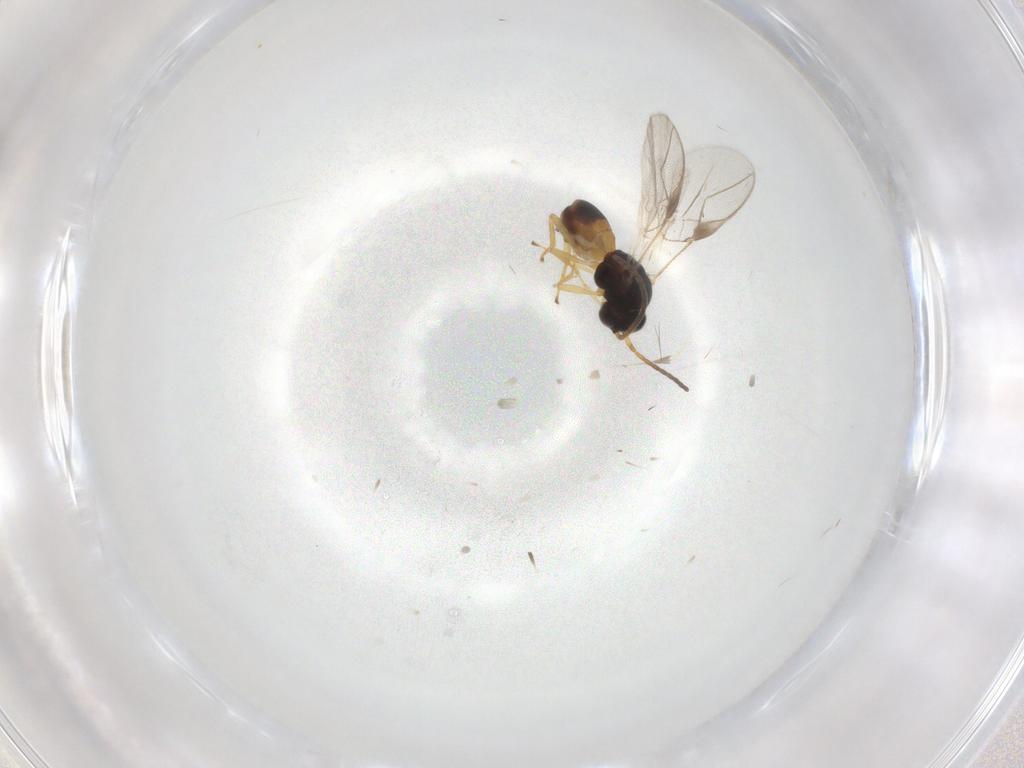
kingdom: Animalia
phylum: Arthropoda
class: Insecta
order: Hymenoptera
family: Braconidae
